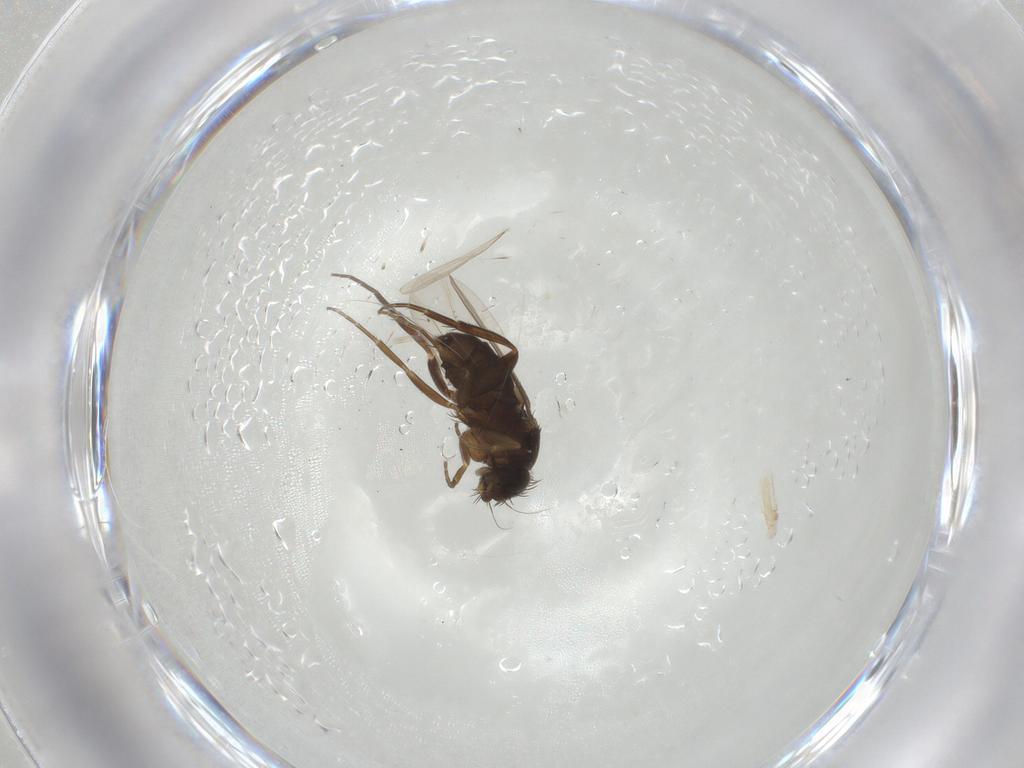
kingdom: Animalia
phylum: Arthropoda
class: Insecta
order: Diptera
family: Phoridae
